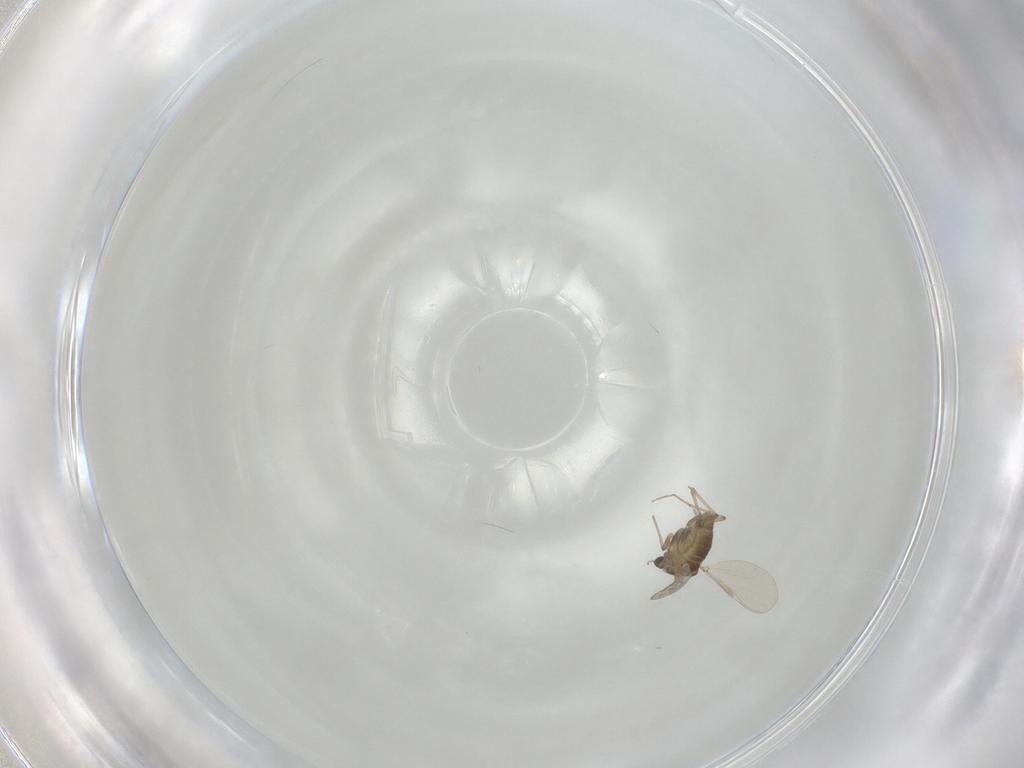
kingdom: Animalia
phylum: Arthropoda
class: Insecta
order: Diptera
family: Chironomidae
